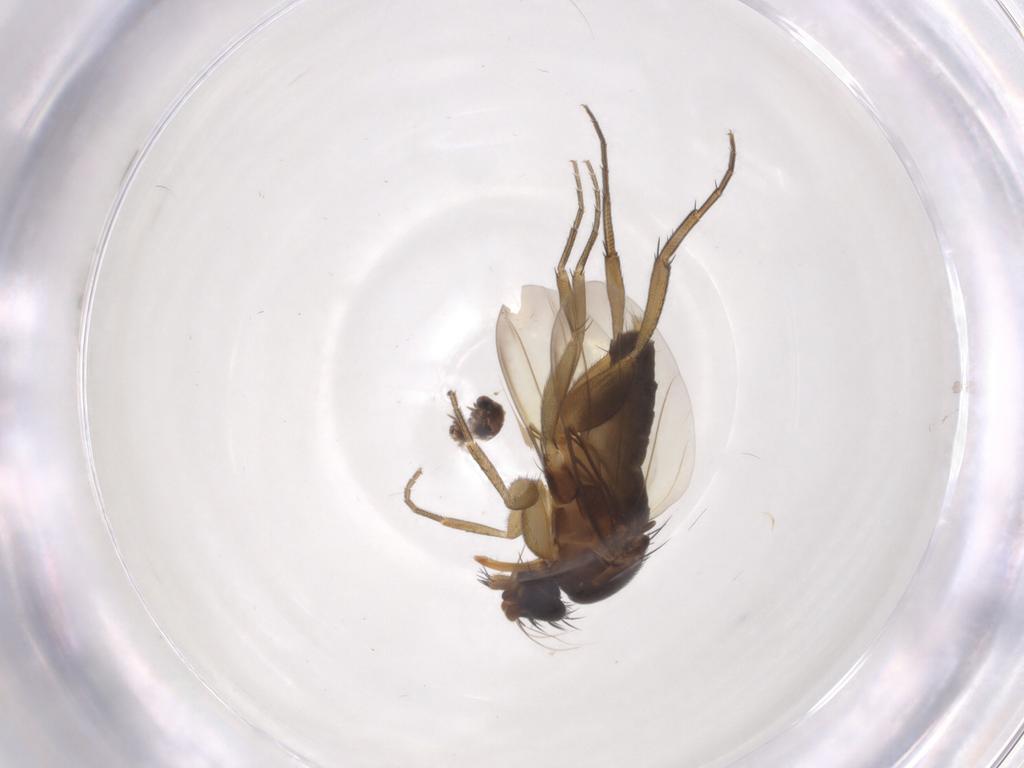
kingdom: Animalia
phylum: Arthropoda
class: Insecta
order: Diptera
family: Phoridae
